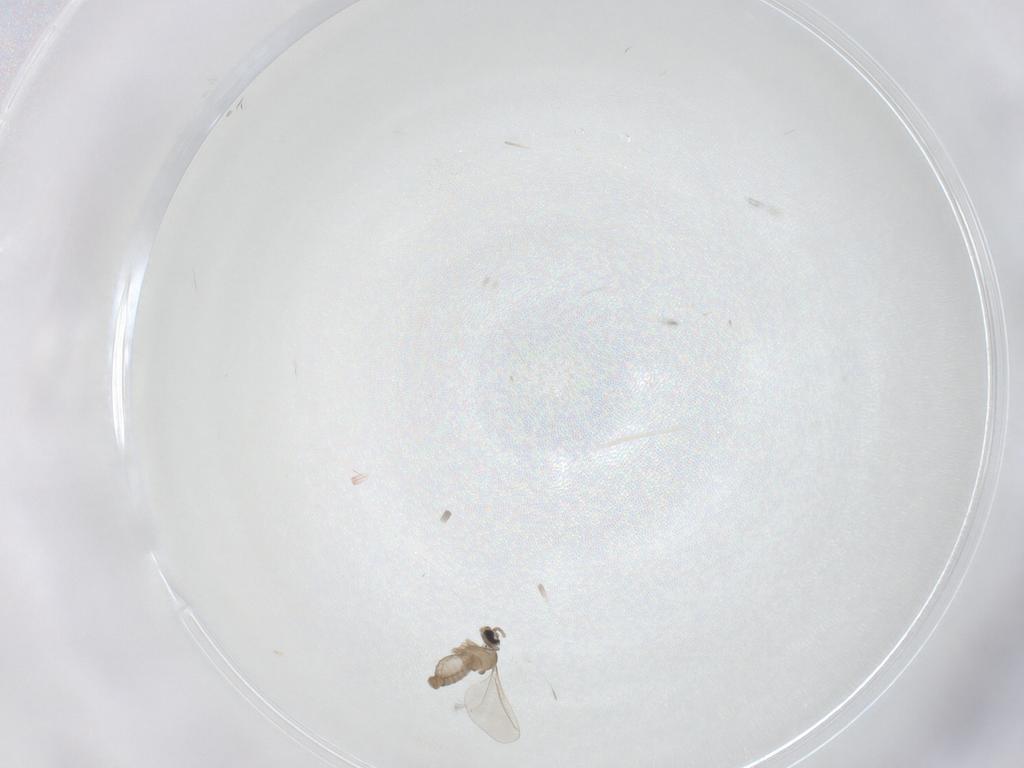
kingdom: Animalia
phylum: Arthropoda
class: Insecta
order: Diptera
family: Cecidomyiidae
